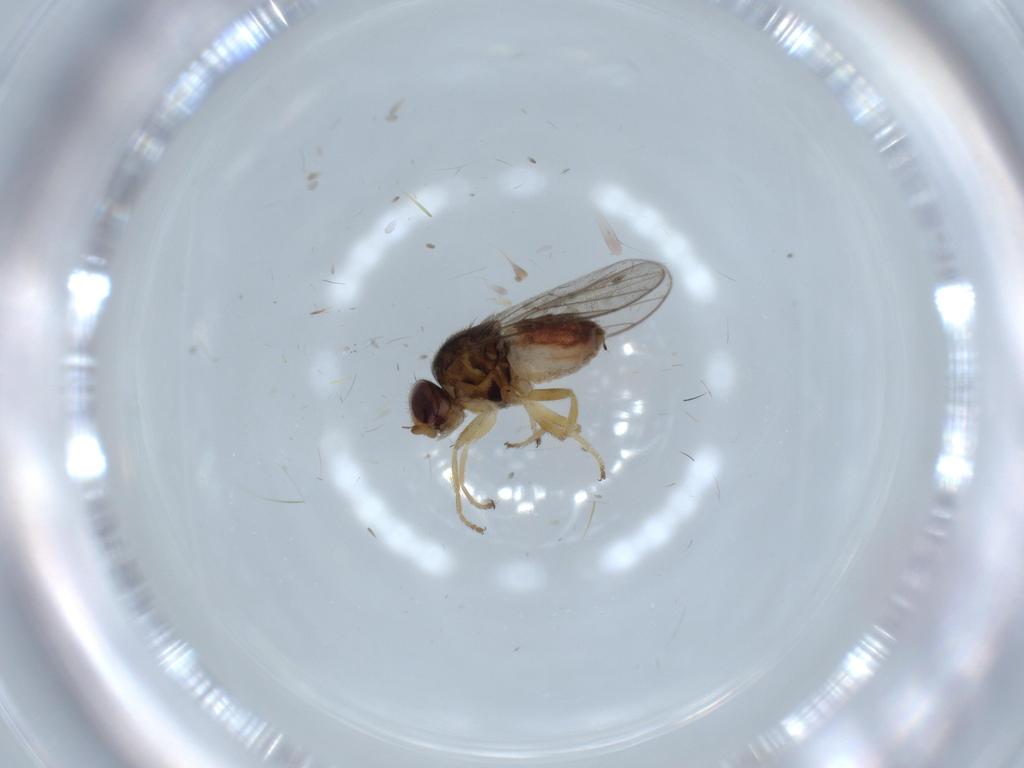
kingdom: Animalia
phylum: Arthropoda
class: Insecta
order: Diptera
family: Chloropidae
